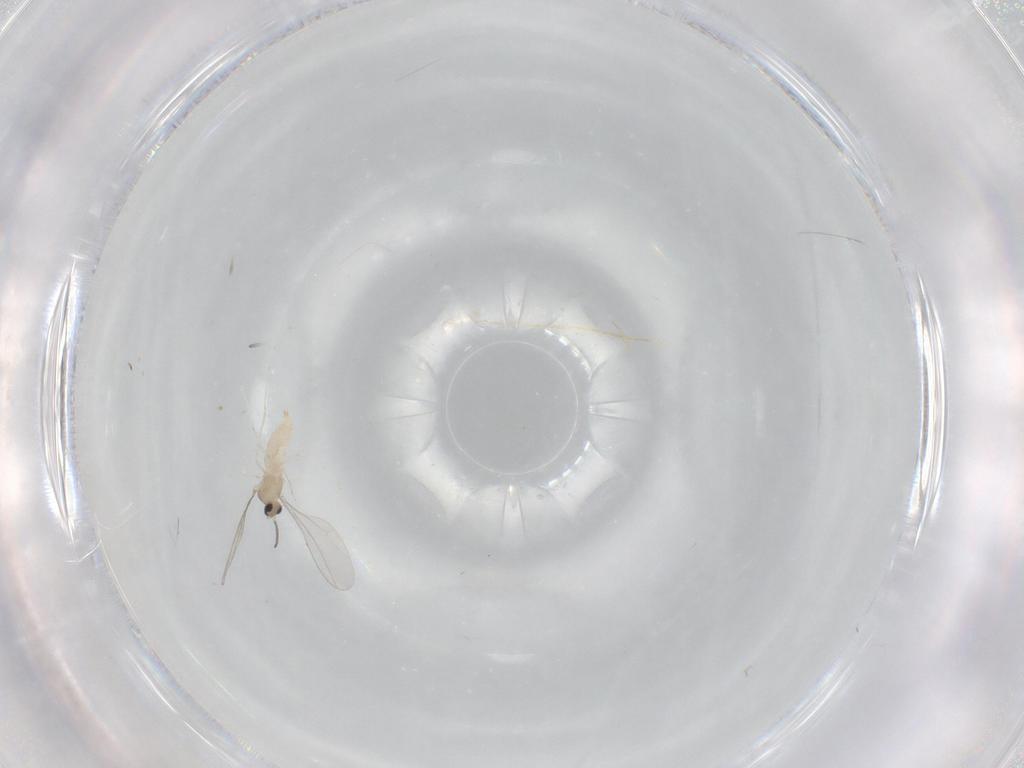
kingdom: Animalia
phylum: Arthropoda
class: Insecta
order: Diptera
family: Cecidomyiidae
